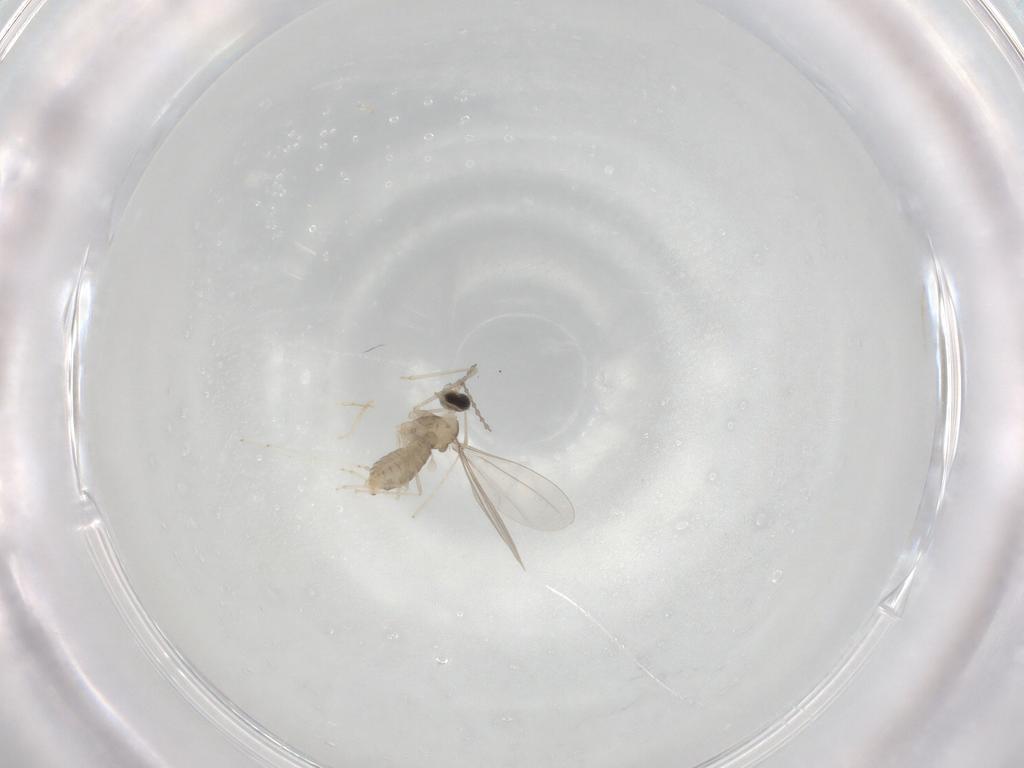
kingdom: Animalia
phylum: Arthropoda
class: Insecta
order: Diptera
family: Cecidomyiidae
